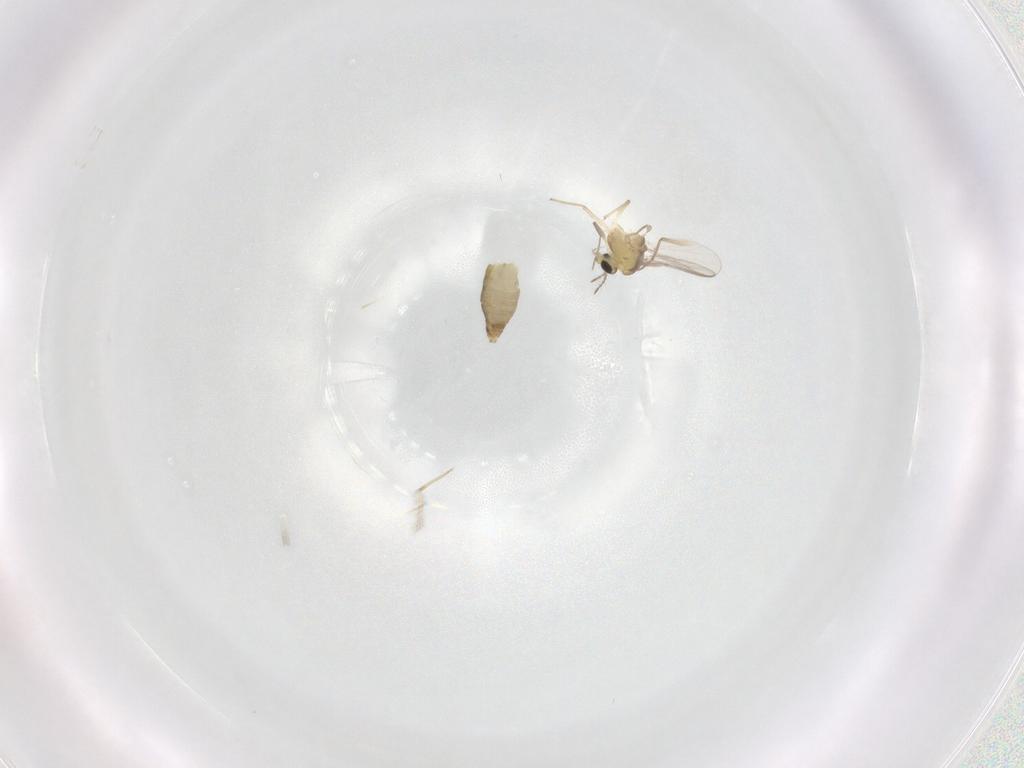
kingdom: Animalia
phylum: Arthropoda
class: Insecta
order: Diptera
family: Chironomidae
